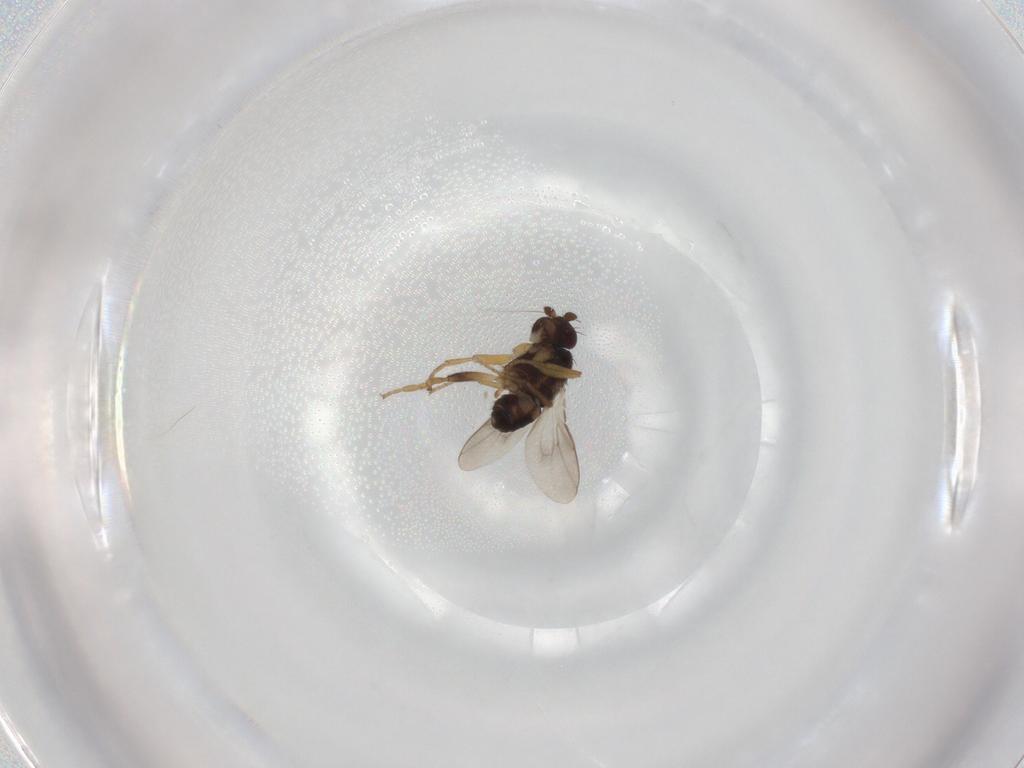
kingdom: Animalia
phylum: Arthropoda
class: Insecta
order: Diptera
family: Sphaeroceridae
